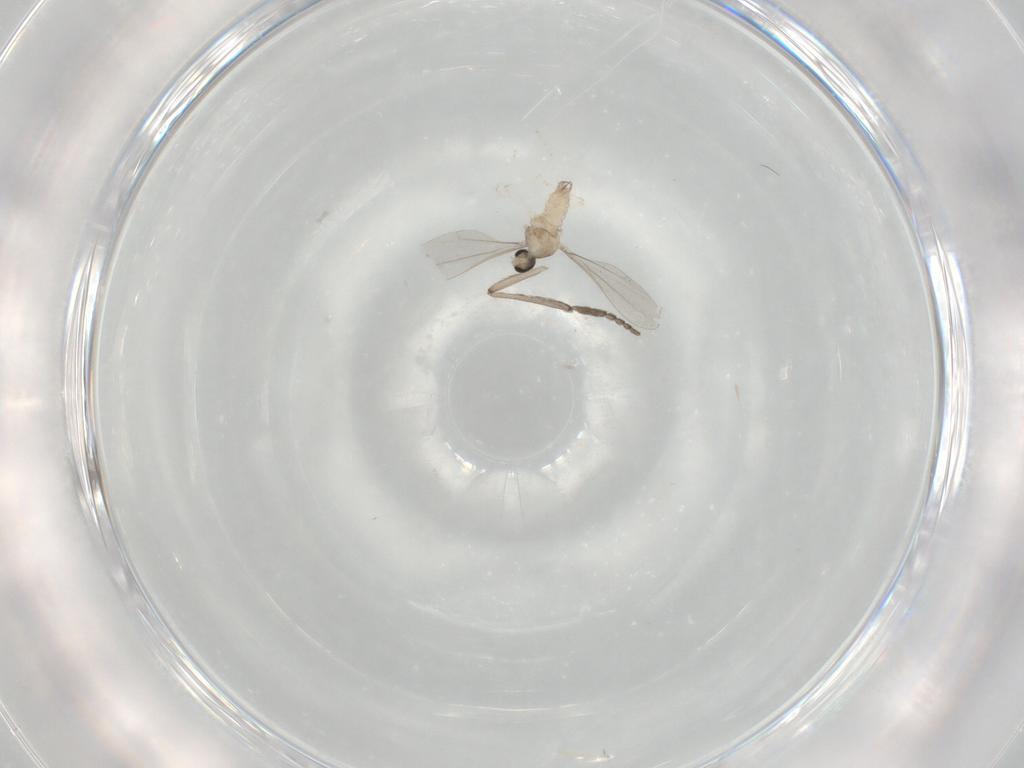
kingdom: Animalia
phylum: Arthropoda
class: Insecta
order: Diptera
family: Cecidomyiidae
